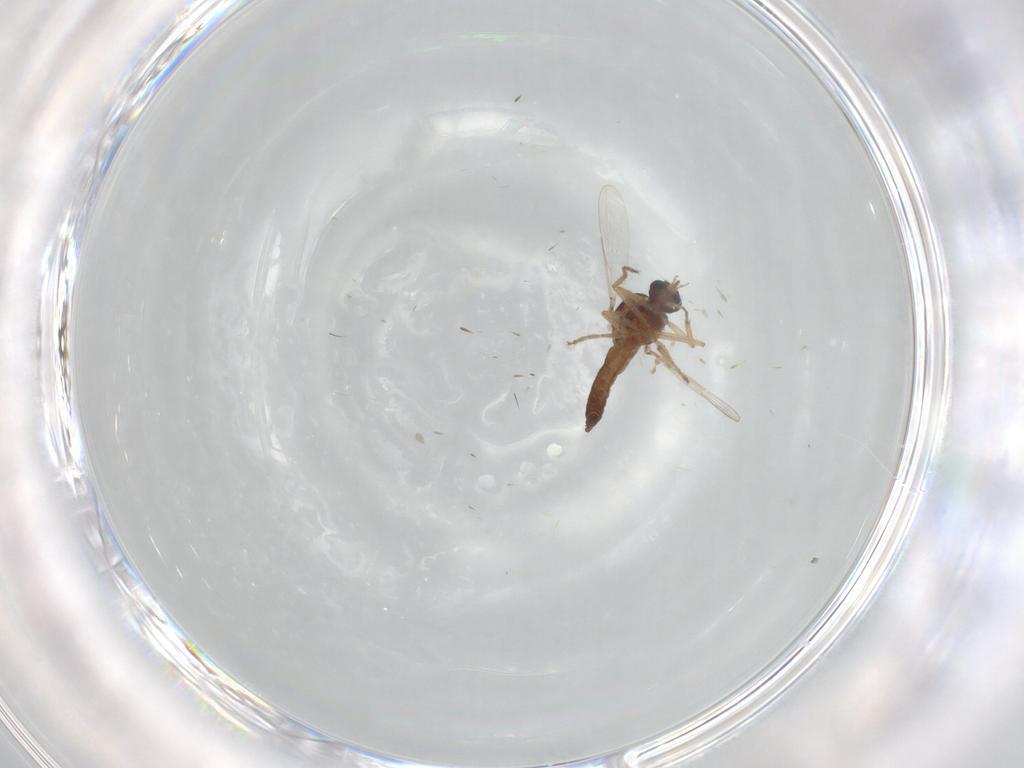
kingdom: Animalia
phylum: Arthropoda
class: Insecta
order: Diptera
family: Ceratopogonidae
